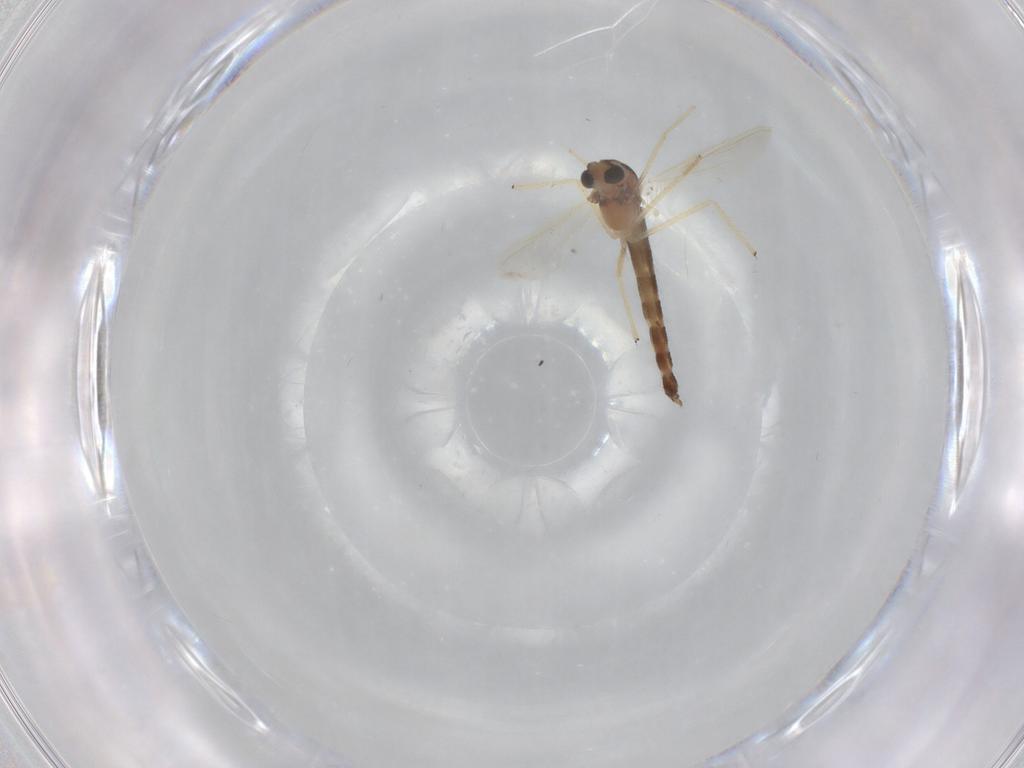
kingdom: Animalia
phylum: Arthropoda
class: Insecta
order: Diptera
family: Chironomidae
